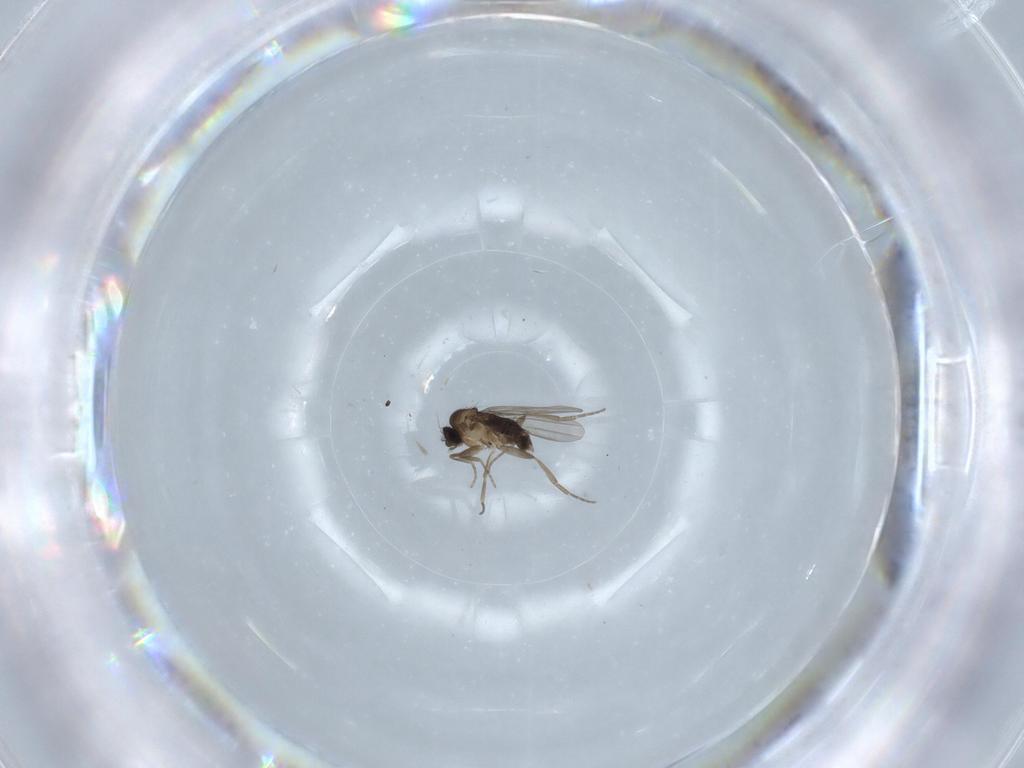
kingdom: Animalia
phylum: Arthropoda
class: Insecta
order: Diptera
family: Phoridae
